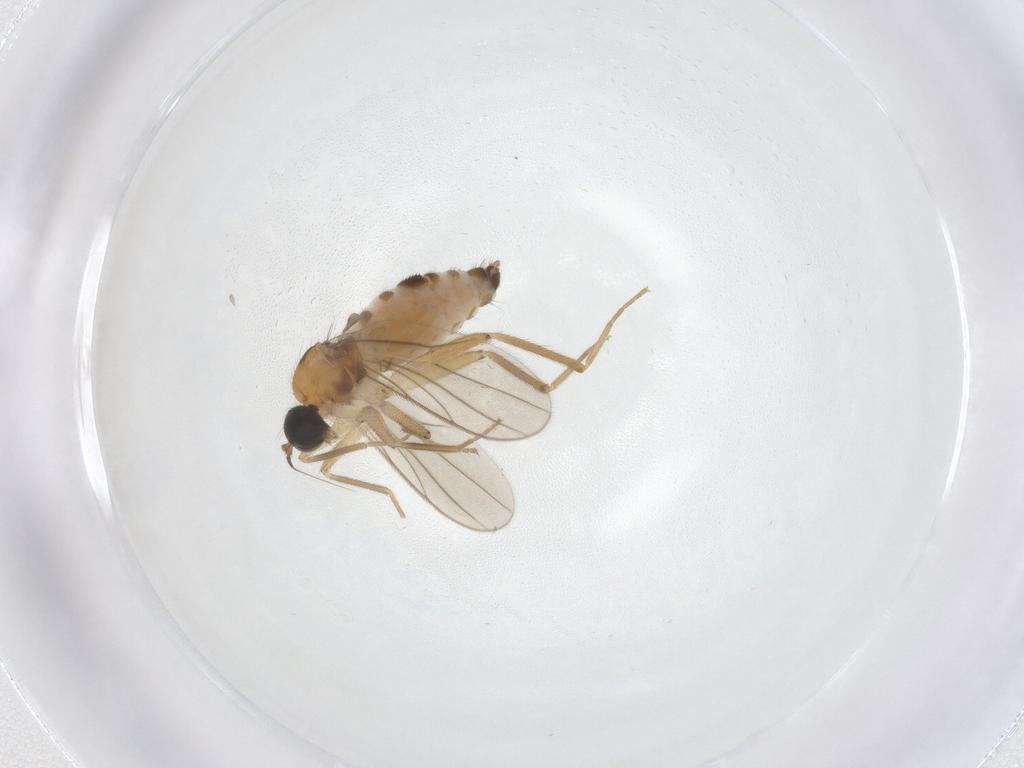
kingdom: Animalia
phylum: Arthropoda
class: Insecta
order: Diptera
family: Hybotidae
